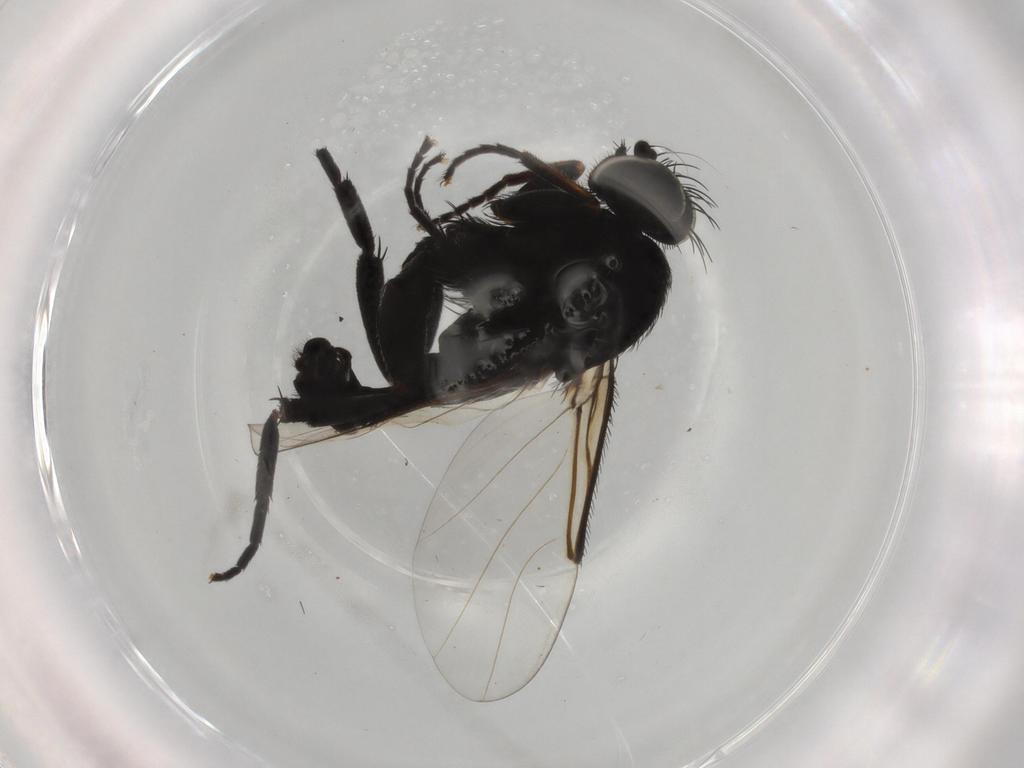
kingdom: Animalia
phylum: Arthropoda
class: Insecta
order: Diptera
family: Phoridae
